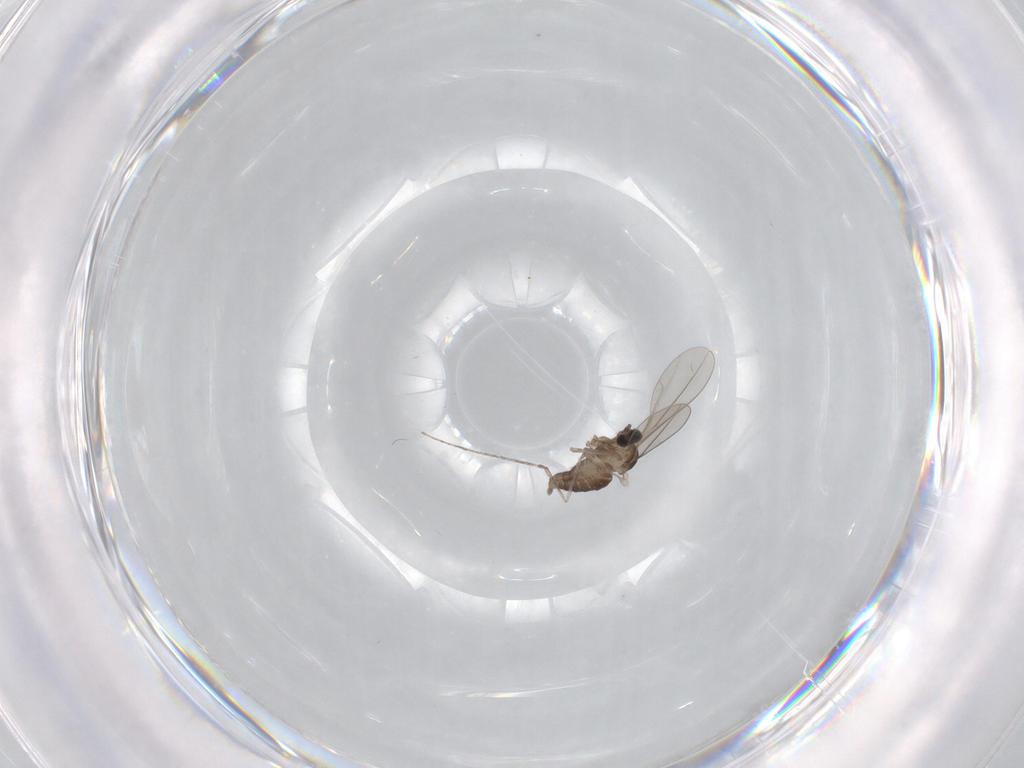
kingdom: Animalia
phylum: Arthropoda
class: Insecta
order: Diptera
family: Cecidomyiidae
